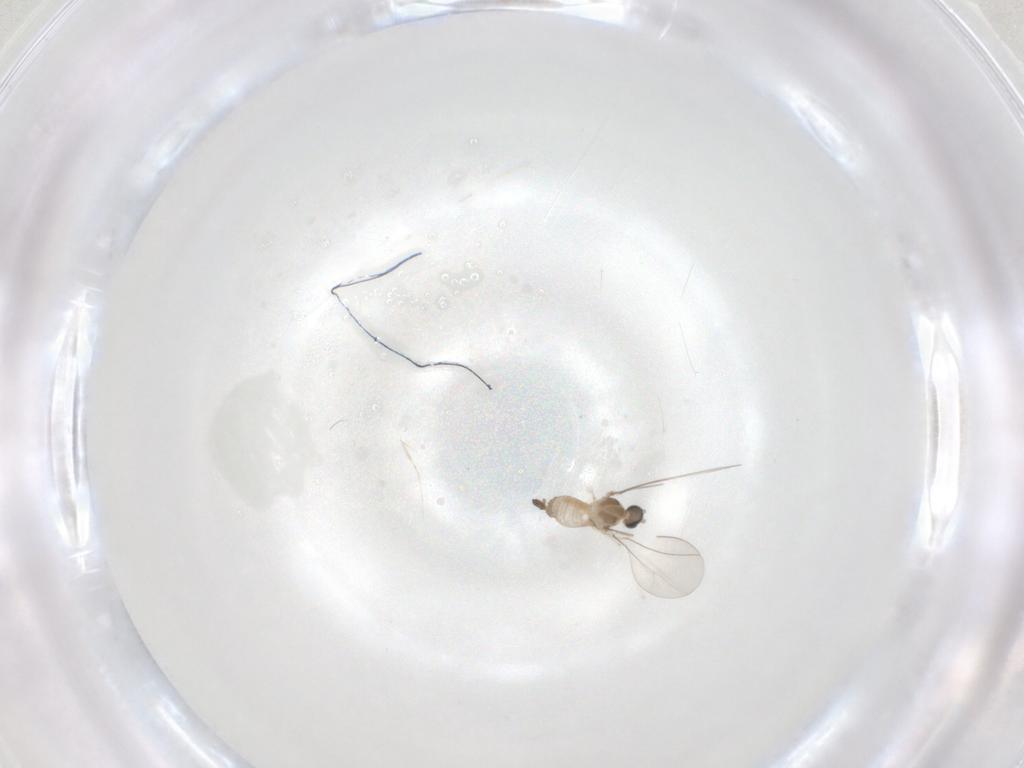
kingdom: Animalia
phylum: Arthropoda
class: Insecta
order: Diptera
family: Cecidomyiidae
